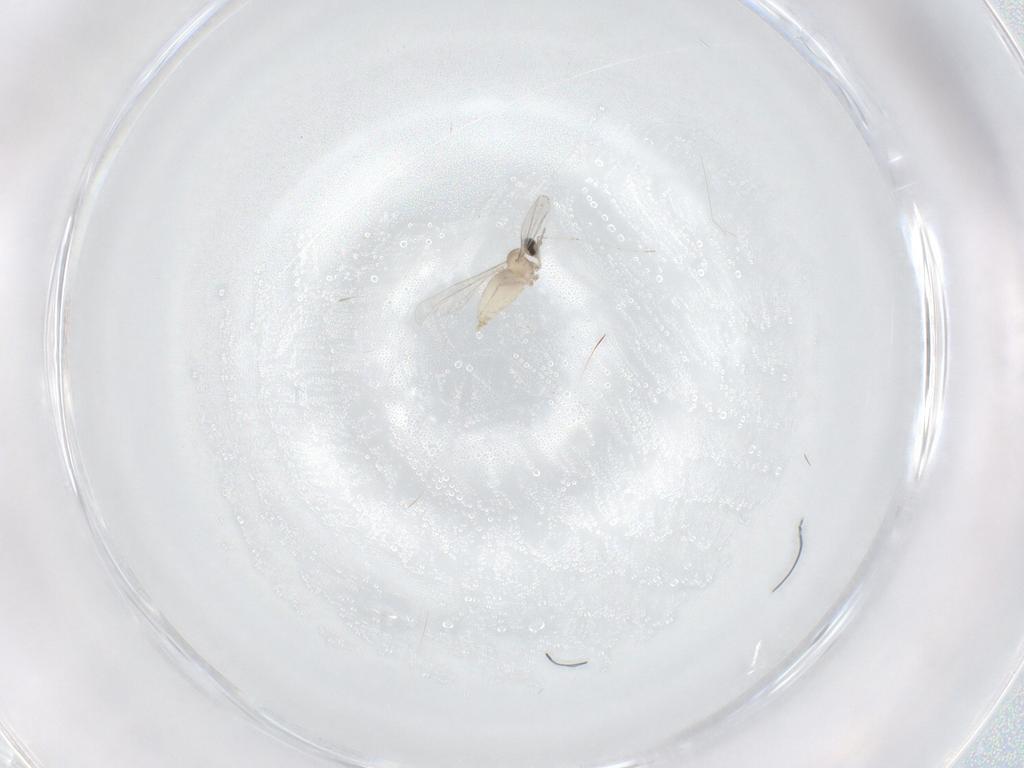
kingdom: Animalia
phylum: Arthropoda
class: Insecta
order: Diptera
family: Cecidomyiidae
